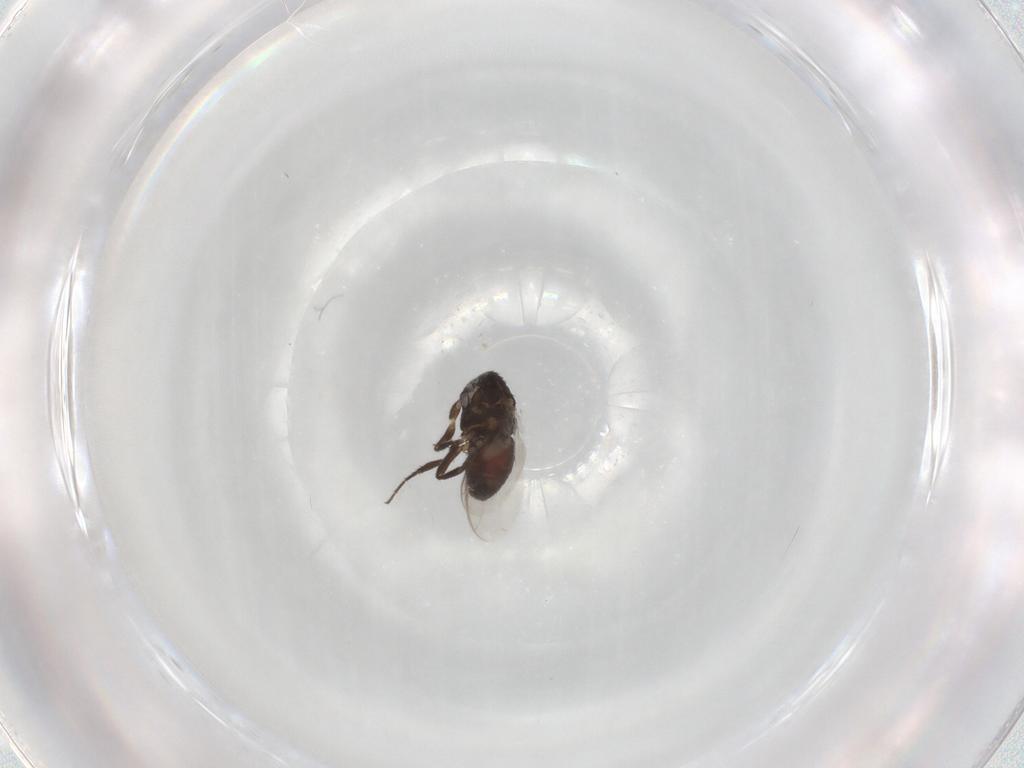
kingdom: Animalia
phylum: Arthropoda
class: Insecta
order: Diptera
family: Sphaeroceridae
